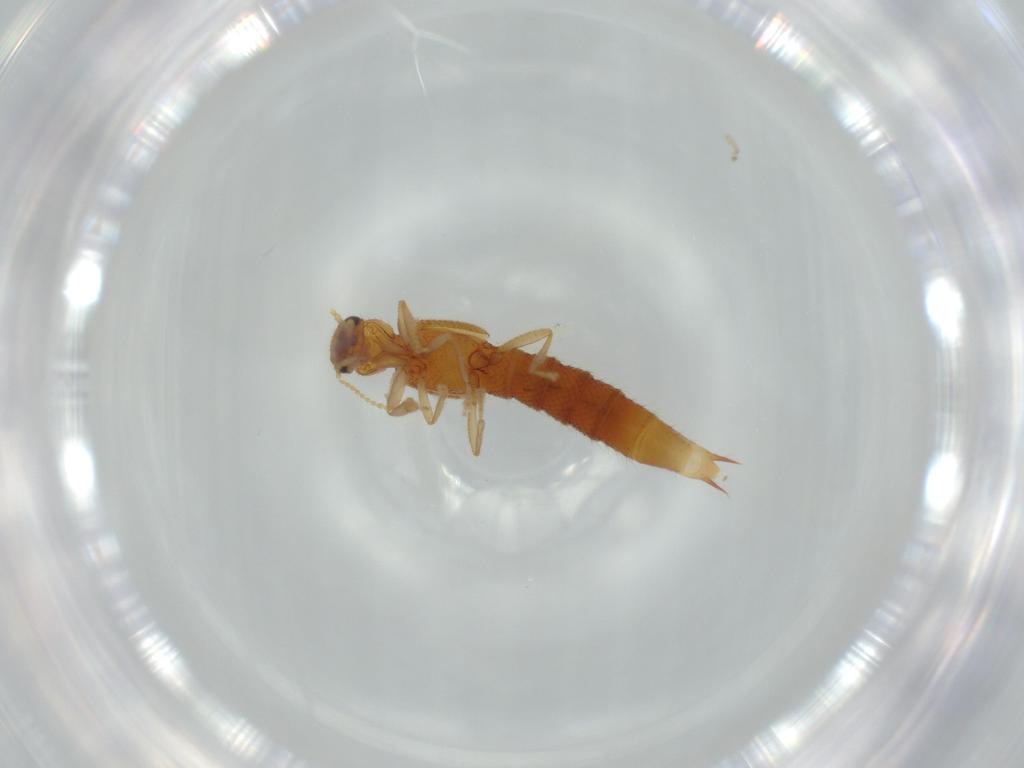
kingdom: Animalia
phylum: Arthropoda
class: Insecta
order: Coleoptera
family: Staphylinidae
